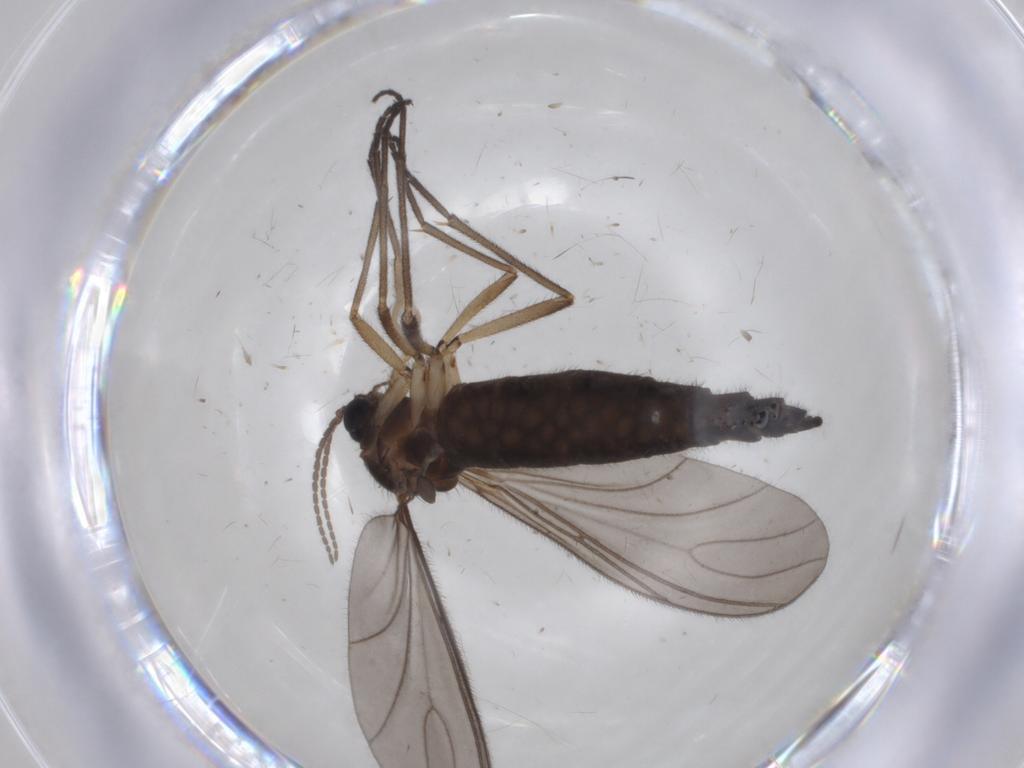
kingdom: Animalia
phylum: Arthropoda
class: Insecta
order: Diptera
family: Sciaridae
